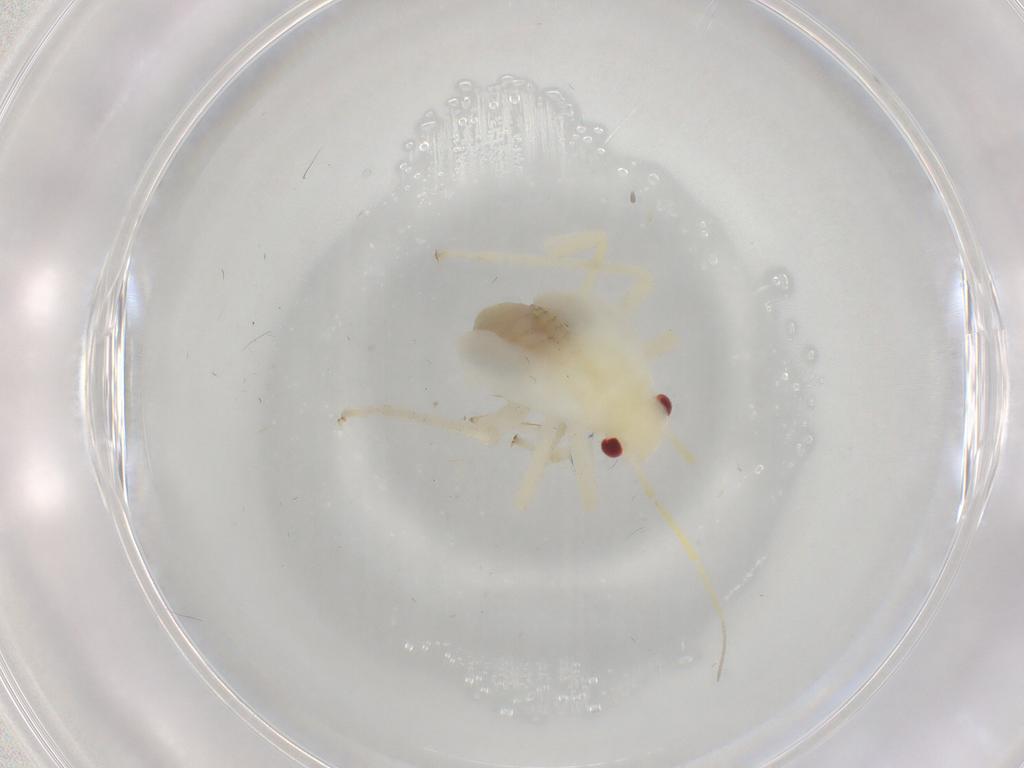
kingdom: Animalia
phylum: Arthropoda
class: Insecta
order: Hemiptera
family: Miridae
